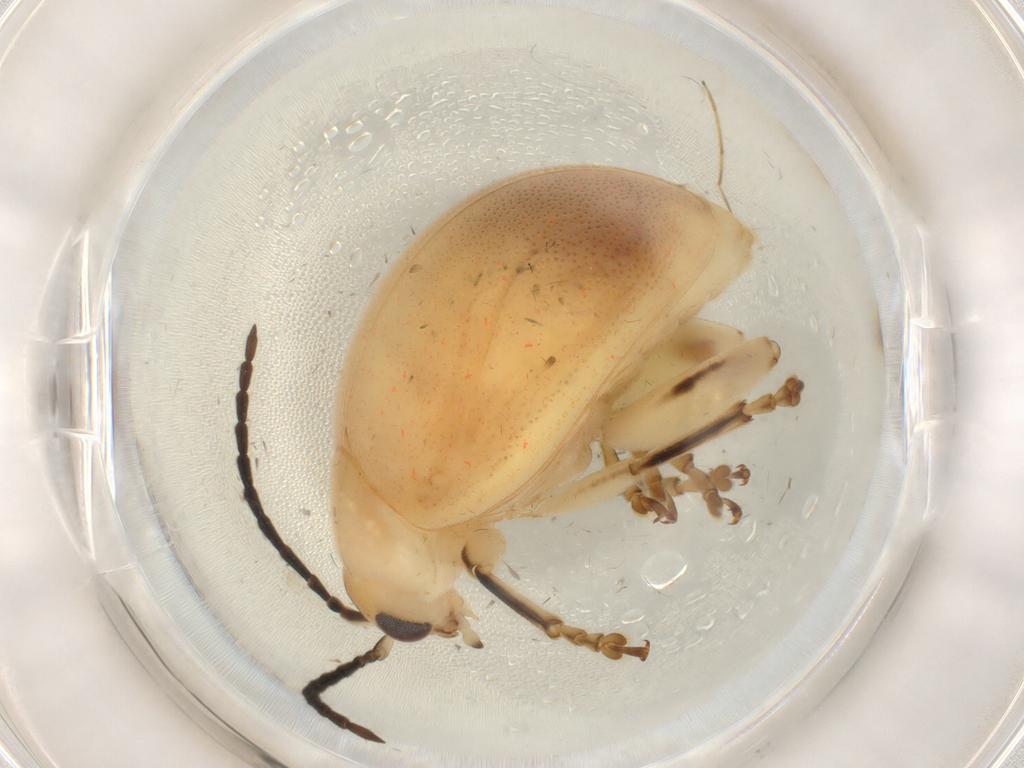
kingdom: Animalia
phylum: Arthropoda
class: Insecta
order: Coleoptera
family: Chrysomelidae
